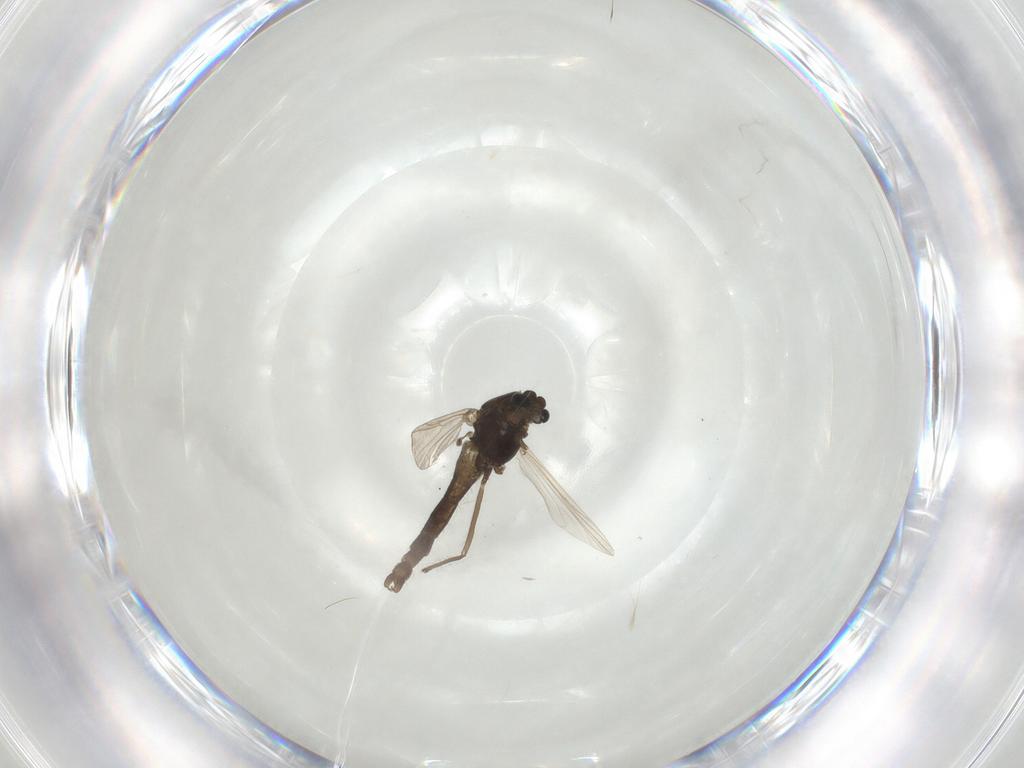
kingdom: Animalia
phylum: Arthropoda
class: Insecta
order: Diptera
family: Chironomidae
